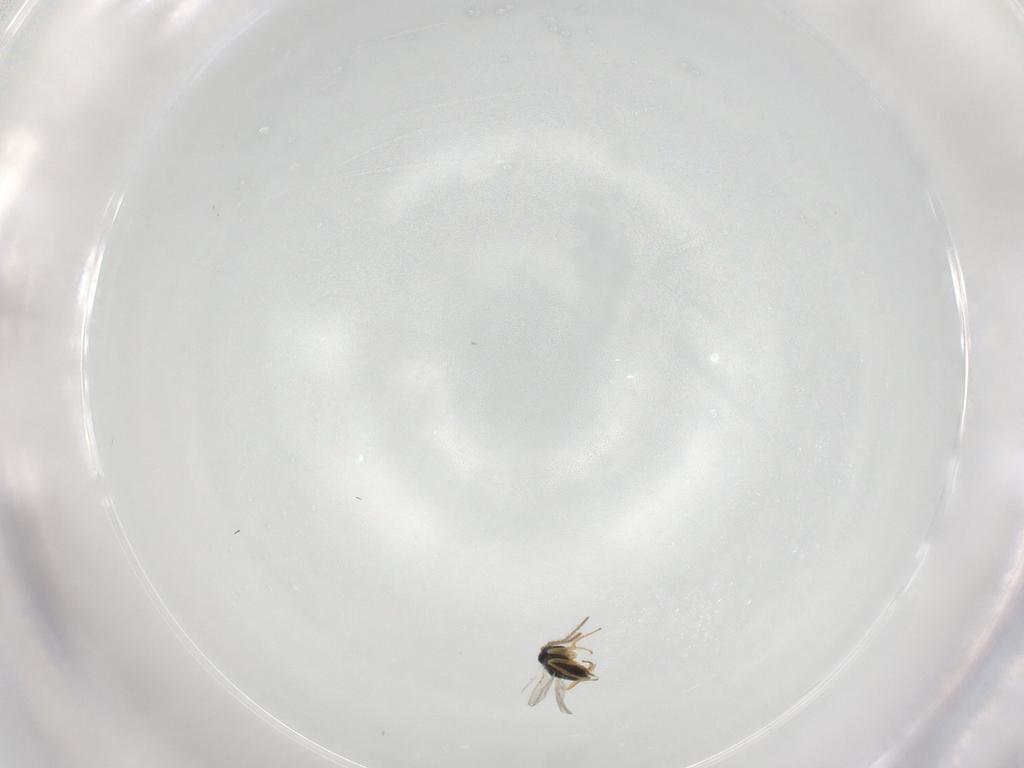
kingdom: Animalia
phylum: Arthropoda
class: Insecta
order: Hymenoptera
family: Encyrtidae
